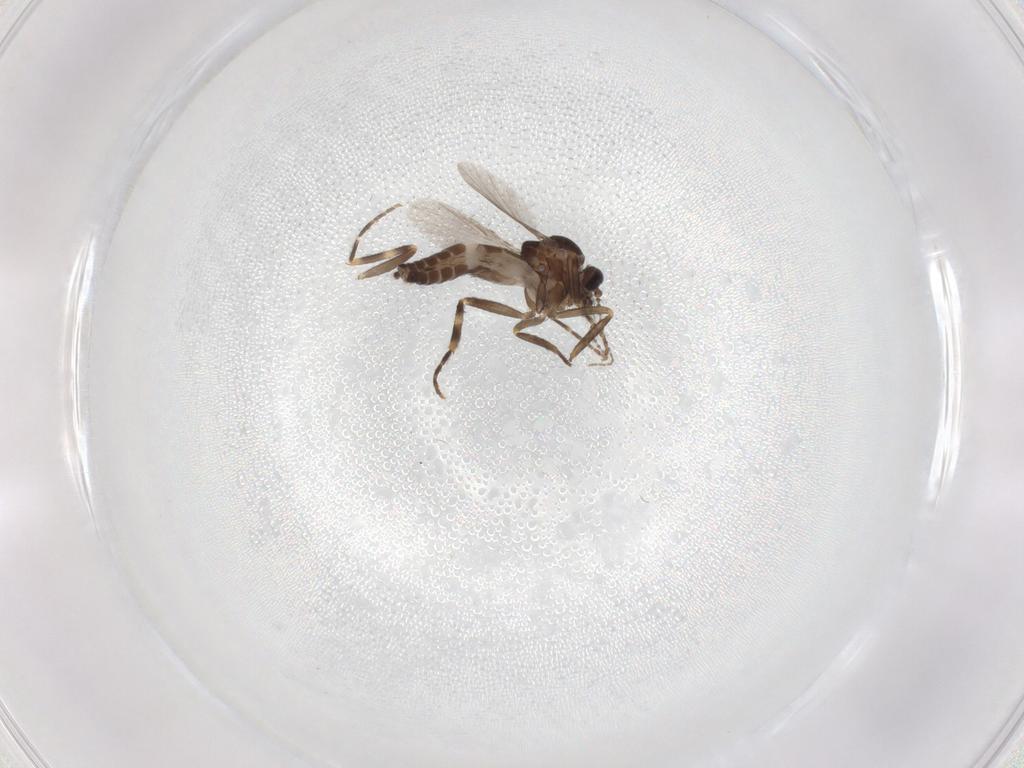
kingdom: Animalia
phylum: Arthropoda
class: Insecta
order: Diptera
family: Ceratopogonidae
